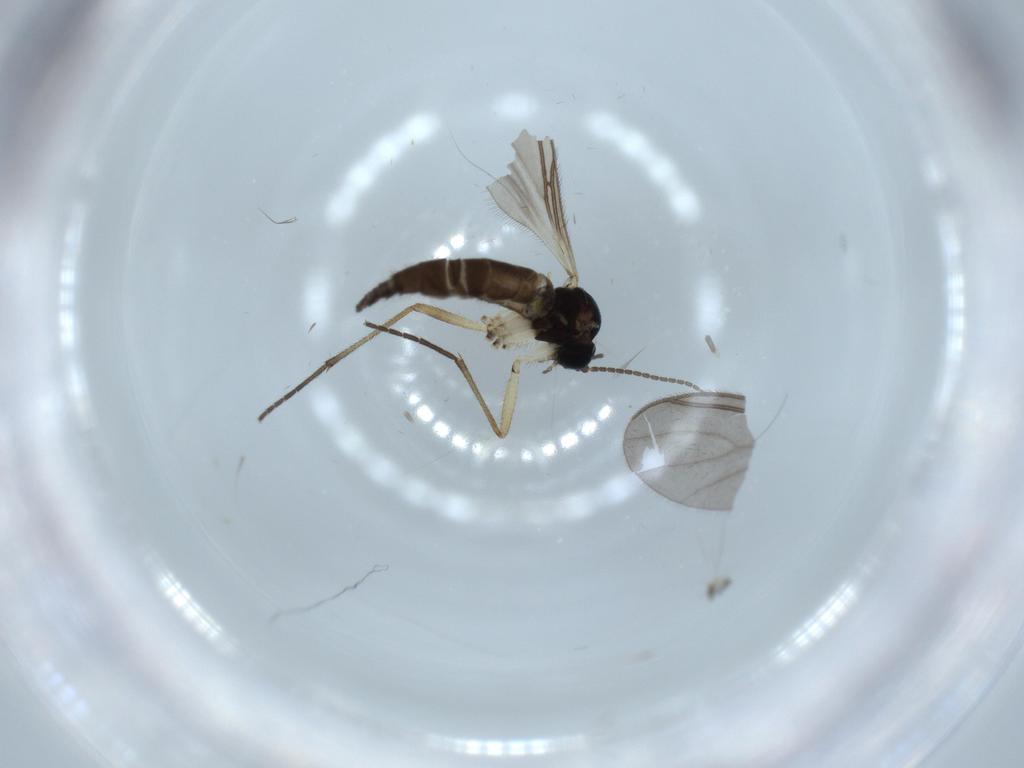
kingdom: Animalia
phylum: Arthropoda
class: Insecta
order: Diptera
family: Sciaridae
